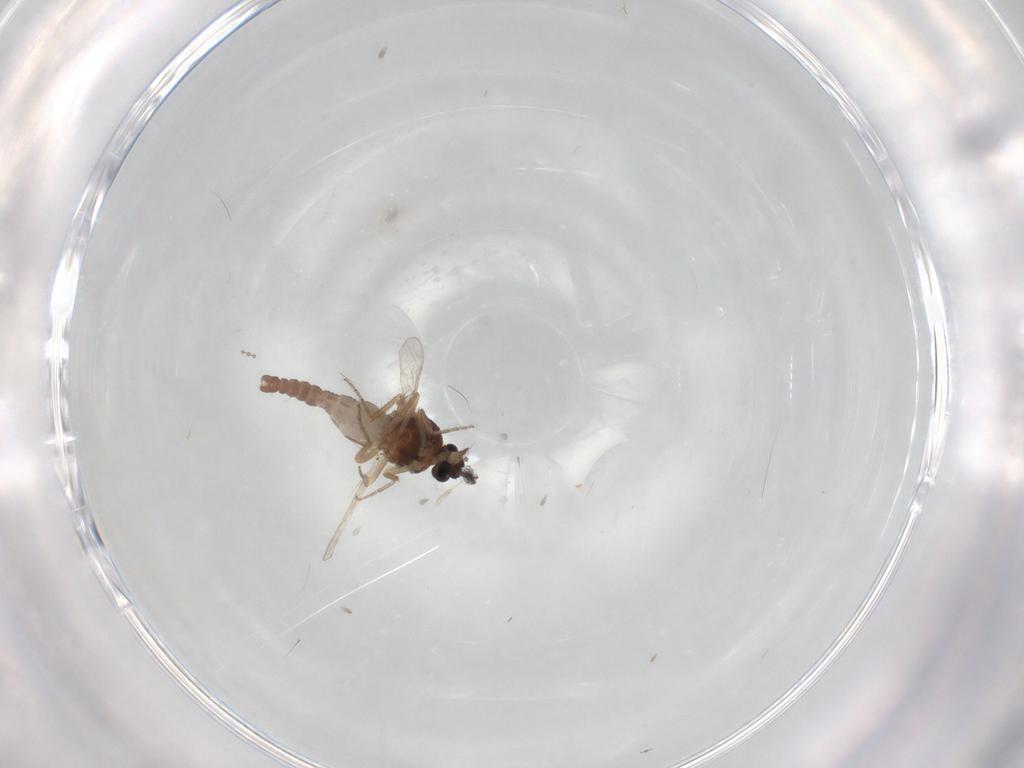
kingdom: Animalia
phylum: Arthropoda
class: Insecta
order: Diptera
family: Ceratopogonidae
